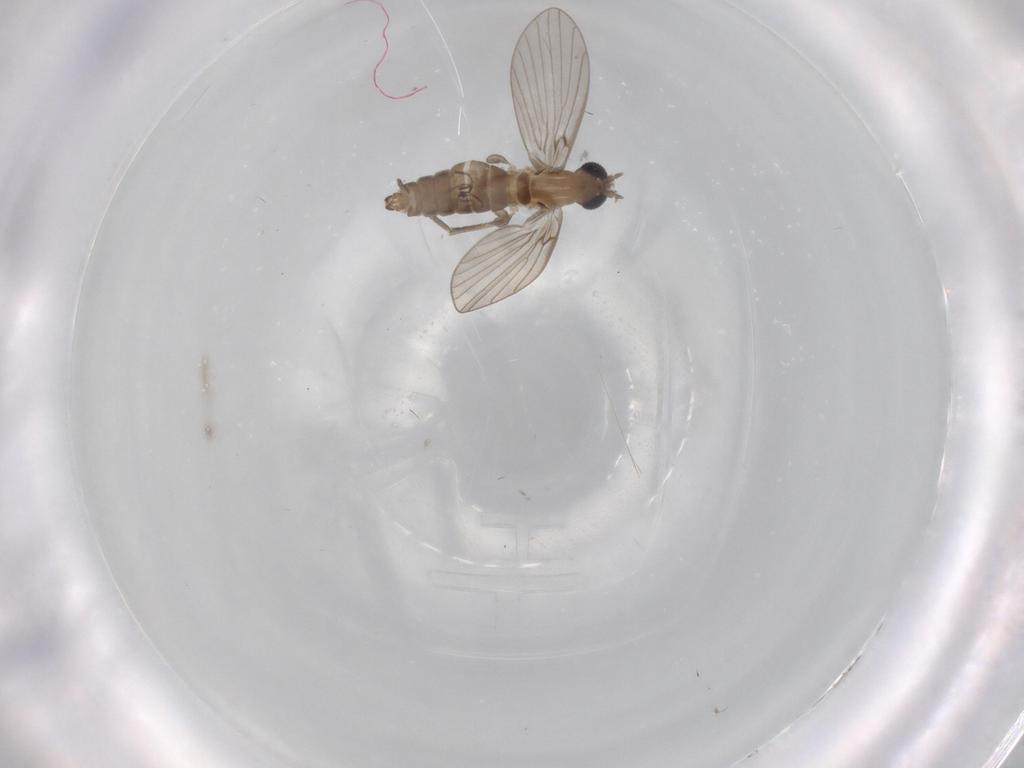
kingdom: Animalia
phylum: Arthropoda
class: Insecta
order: Diptera
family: Psychodidae
